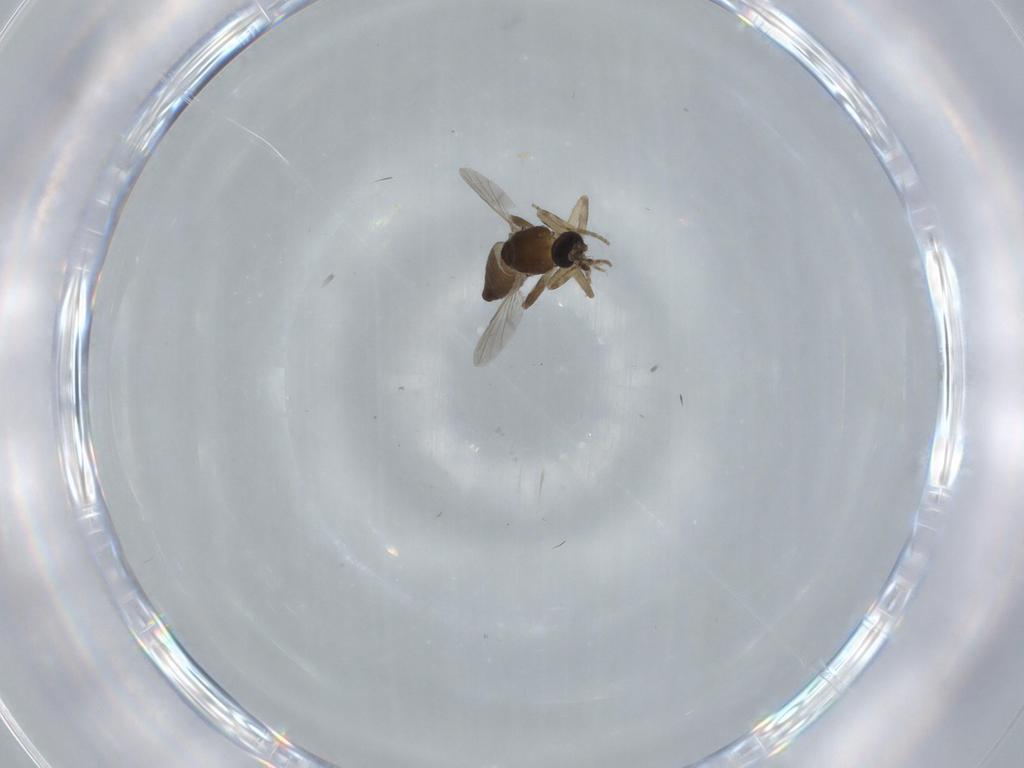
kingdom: Animalia
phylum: Arthropoda
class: Insecta
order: Diptera
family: Ceratopogonidae
